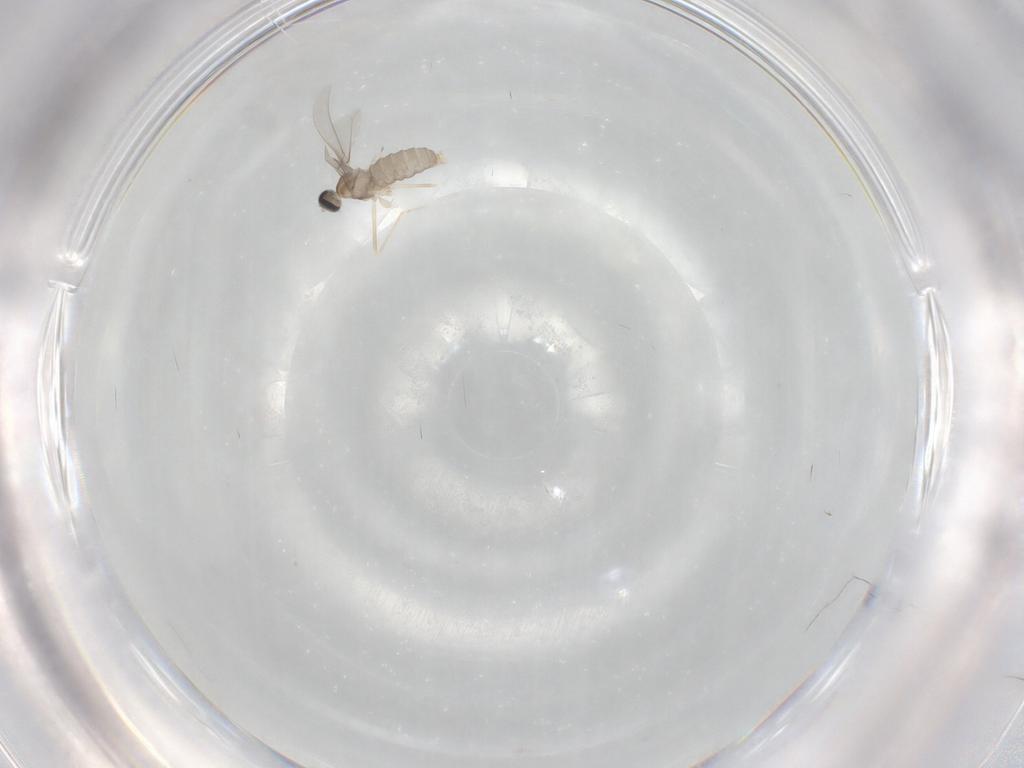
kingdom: Animalia
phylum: Arthropoda
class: Insecta
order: Diptera
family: Cecidomyiidae
